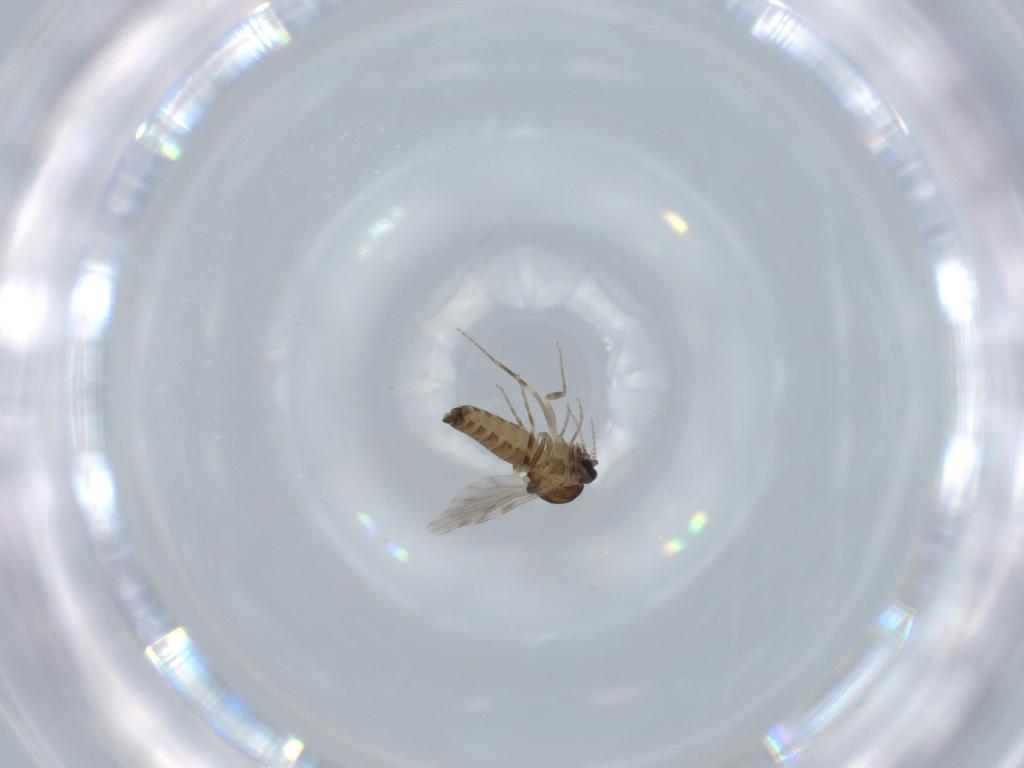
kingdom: Animalia
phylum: Arthropoda
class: Insecta
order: Diptera
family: Ceratopogonidae
